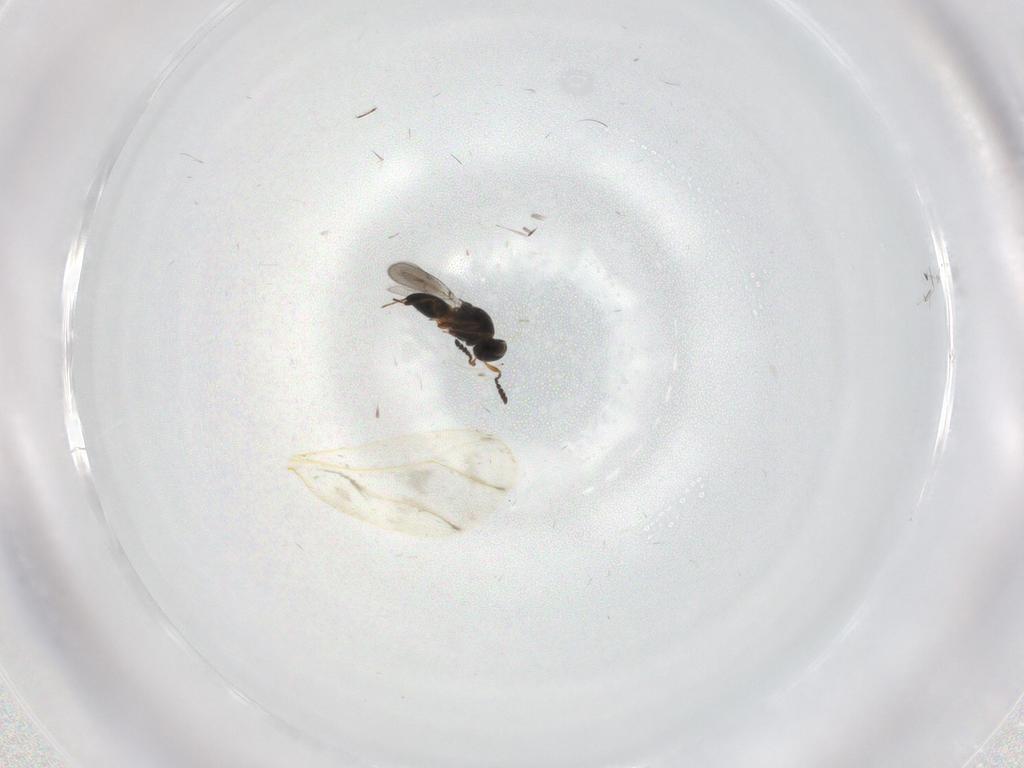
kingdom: Animalia
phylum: Arthropoda
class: Insecta
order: Hymenoptera
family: Platygastridae
